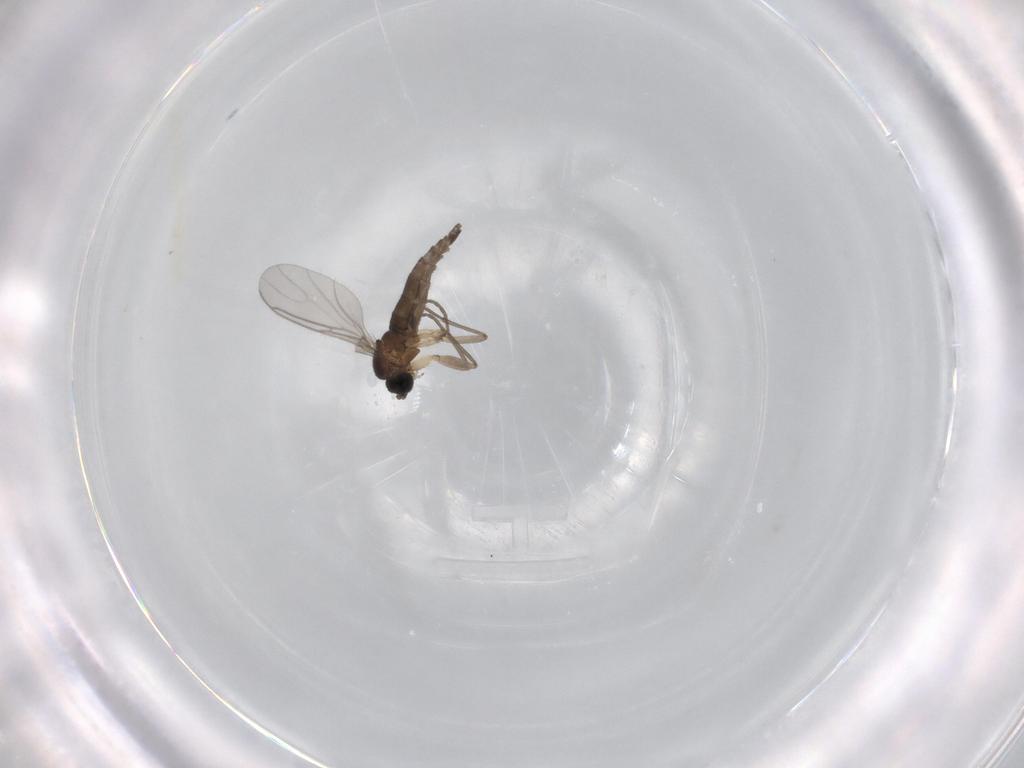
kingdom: Animalia
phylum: Arthropoda
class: Insecta
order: Diptera
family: Sciaridae
